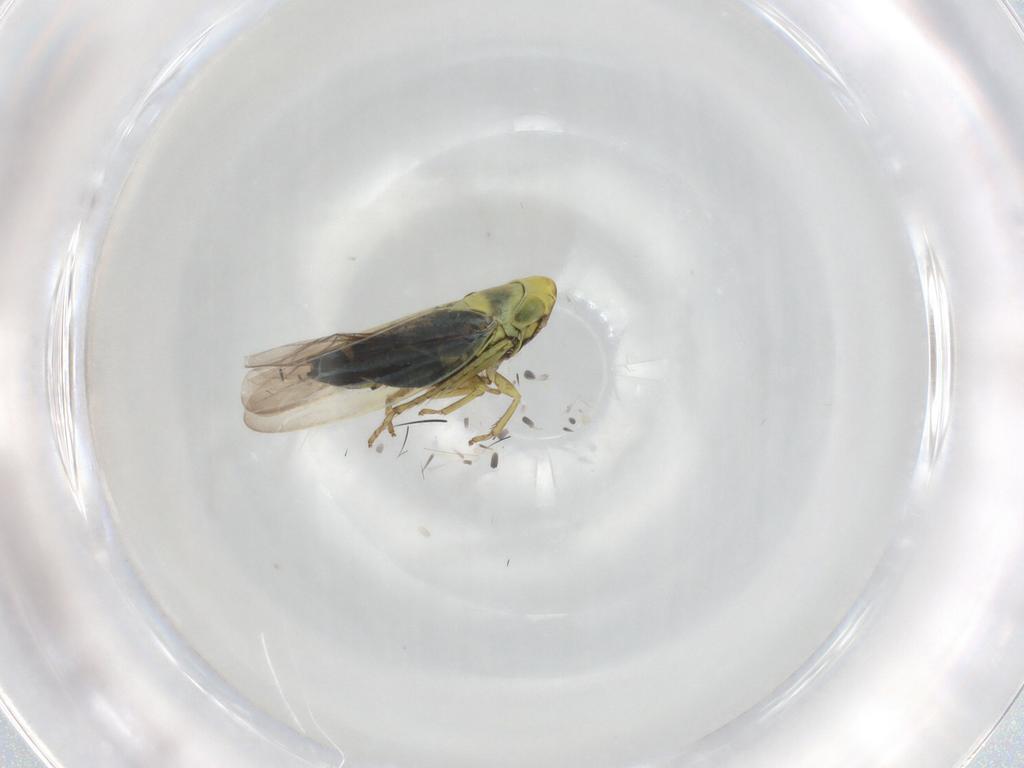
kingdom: Animalia
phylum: Arthropoda
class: Insecta
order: Hemiptera
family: Cicadellidae
